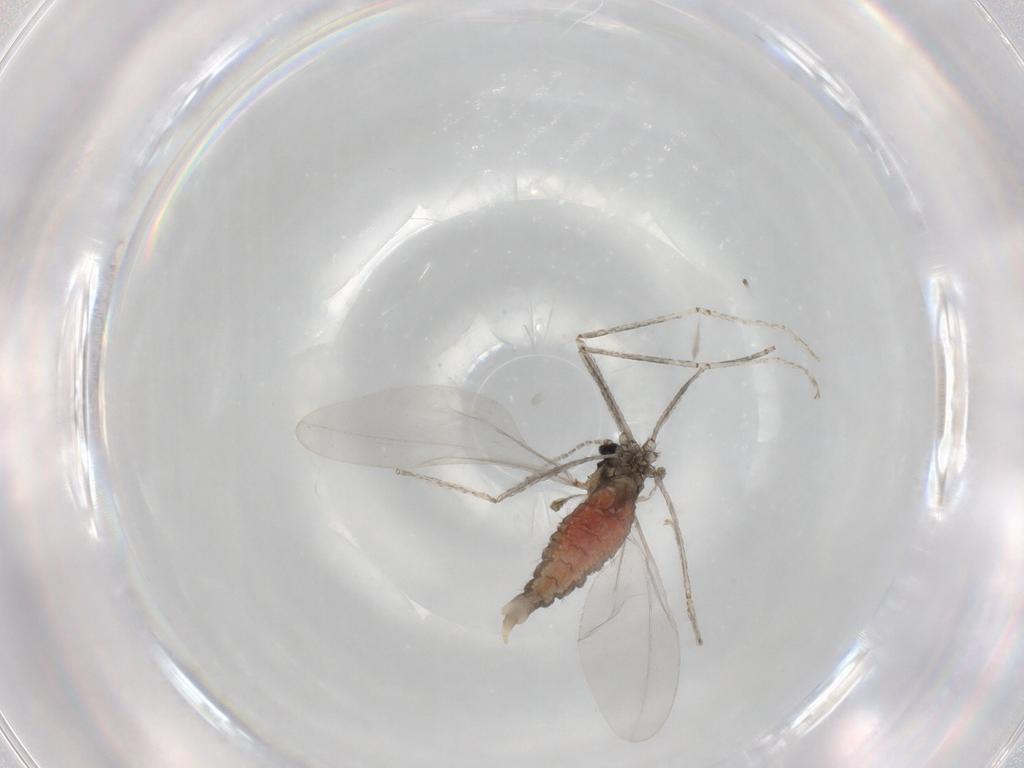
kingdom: Animalia
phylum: Arthropoda
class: Insecta
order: Diptera
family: Cecidomyiidae
